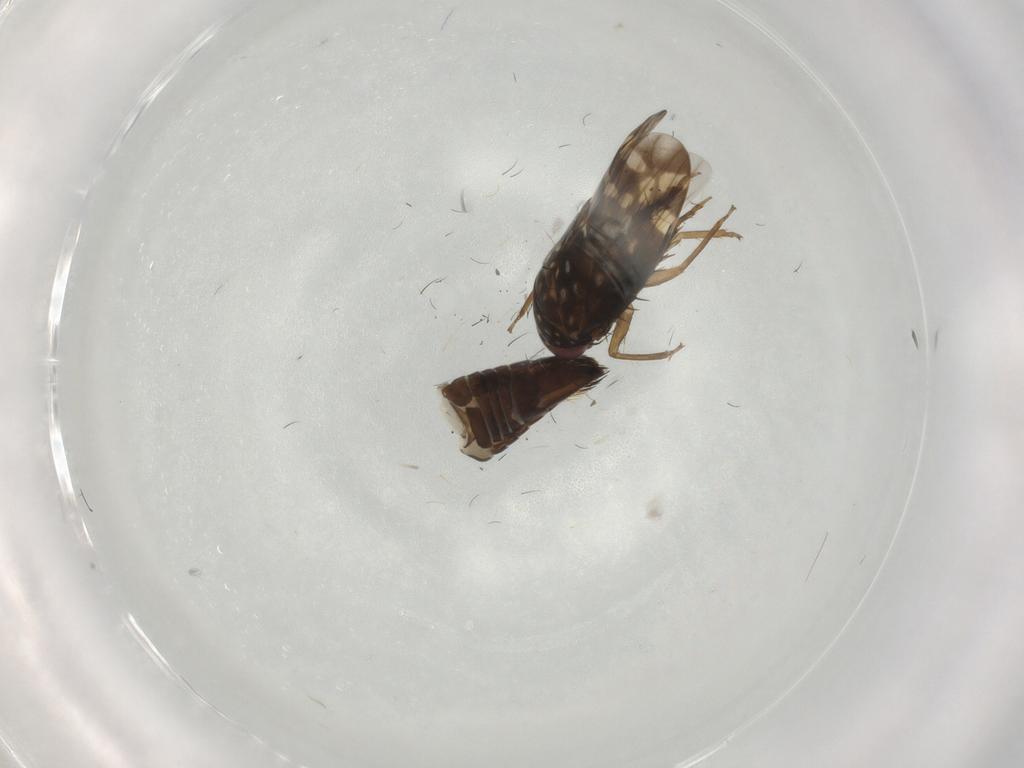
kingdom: Animalia
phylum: Arthropoda
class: Insecta
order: Hemiptera
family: Cicadellidae
